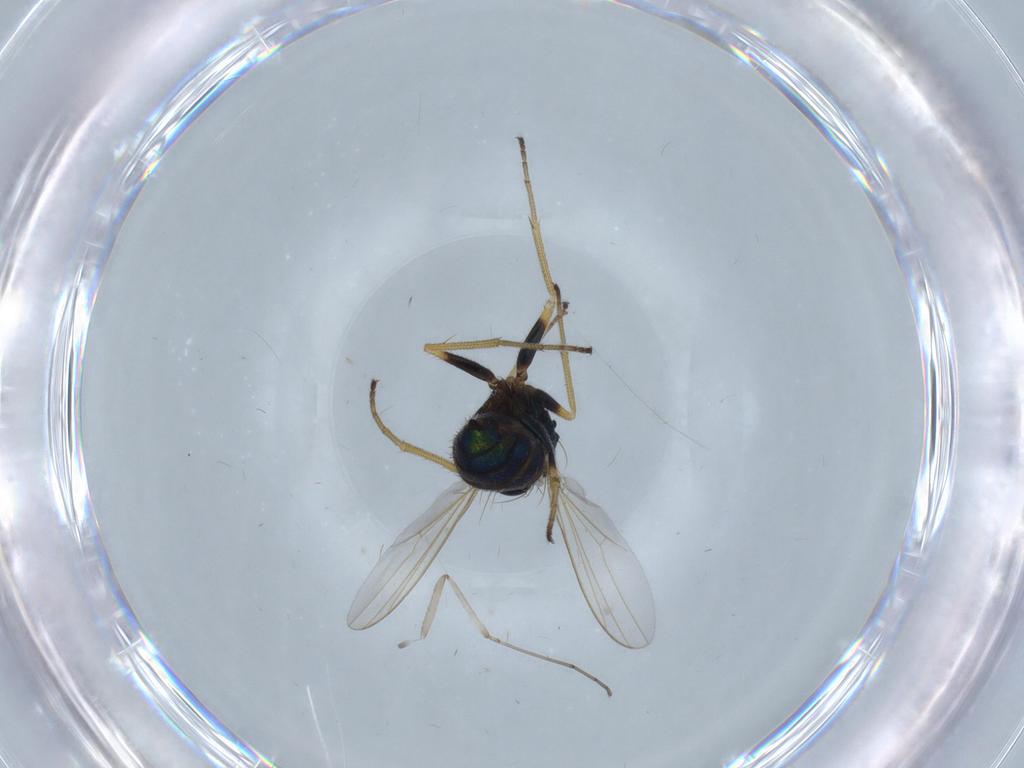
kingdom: Animalia
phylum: Arthropoda
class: Insecta
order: Diptera
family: Dolichopodidae
